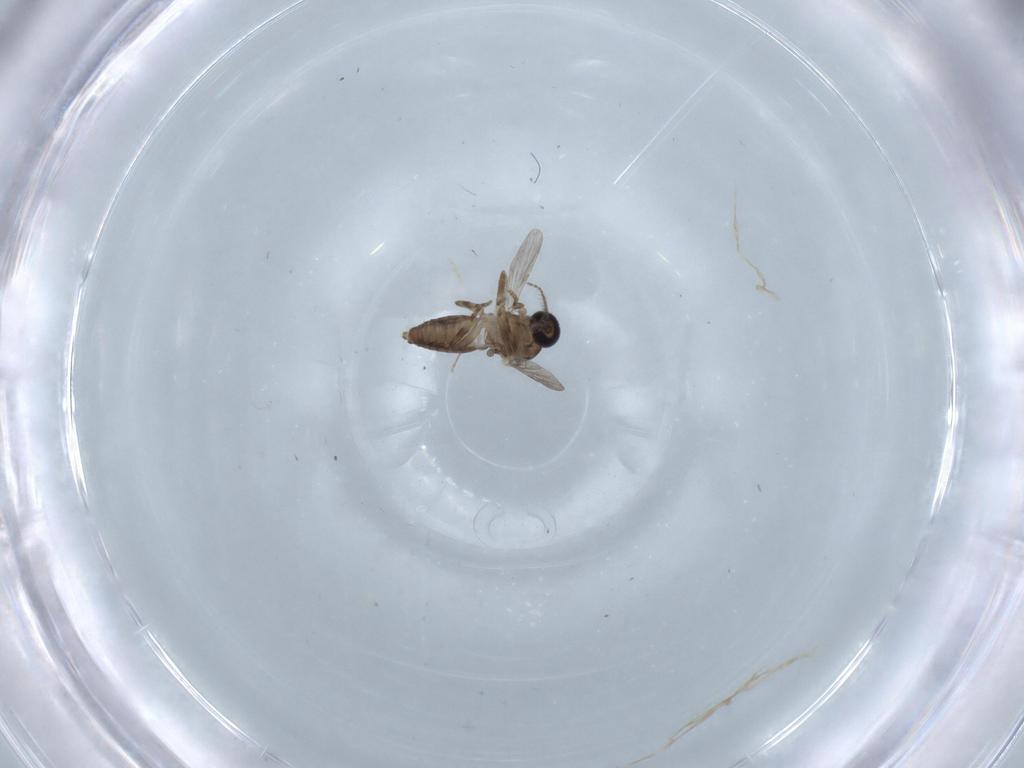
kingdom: Animalia
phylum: Arthropoda
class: Insecta
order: Diptera
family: Ceratopogonidae
